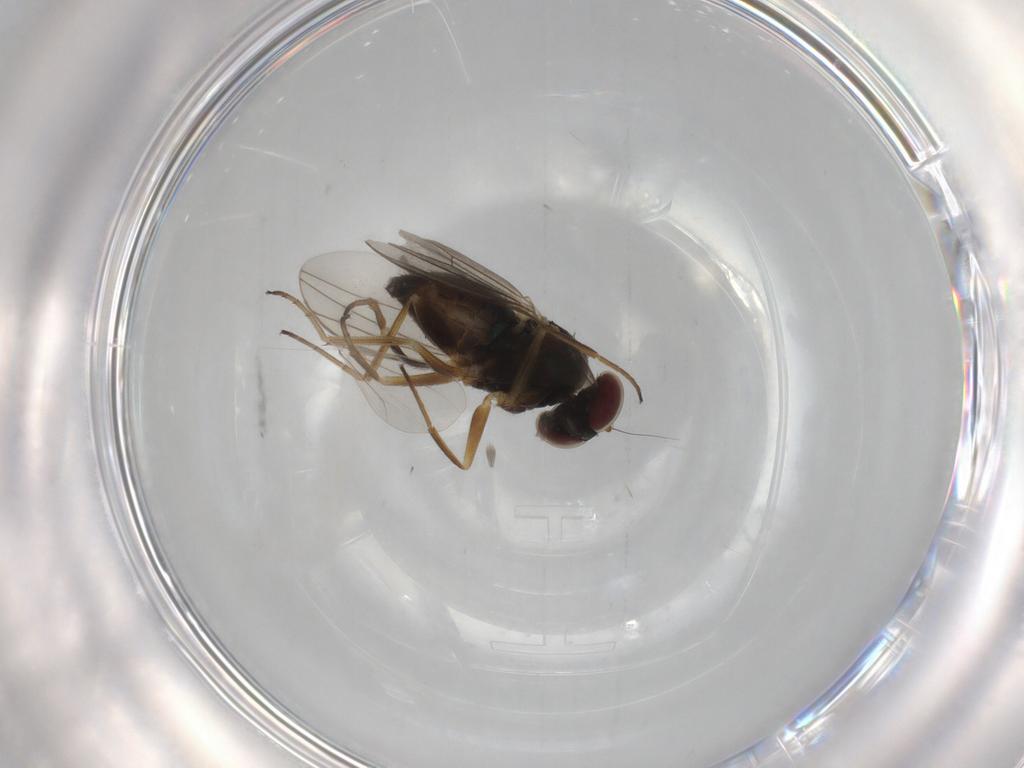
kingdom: Animalia
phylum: Arthropoda
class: Insecta
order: Diptera
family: Dolichopodidae
